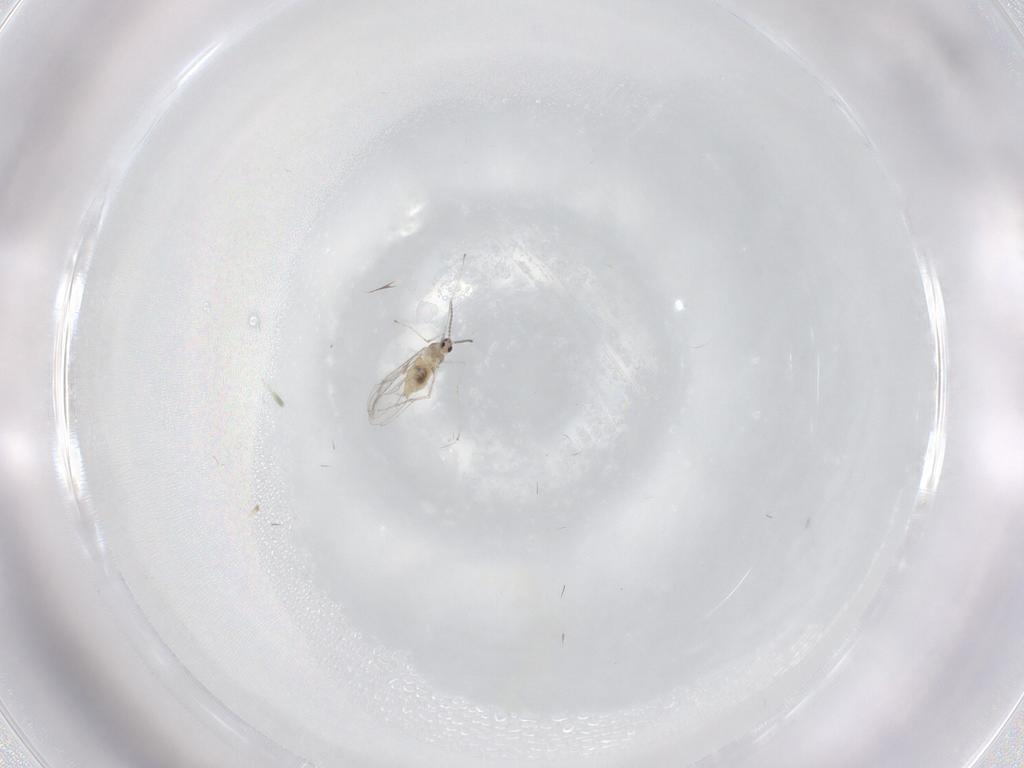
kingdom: Animalia
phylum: Arthropoda
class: Insecta
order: Diptera
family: Cecidomyiidae
